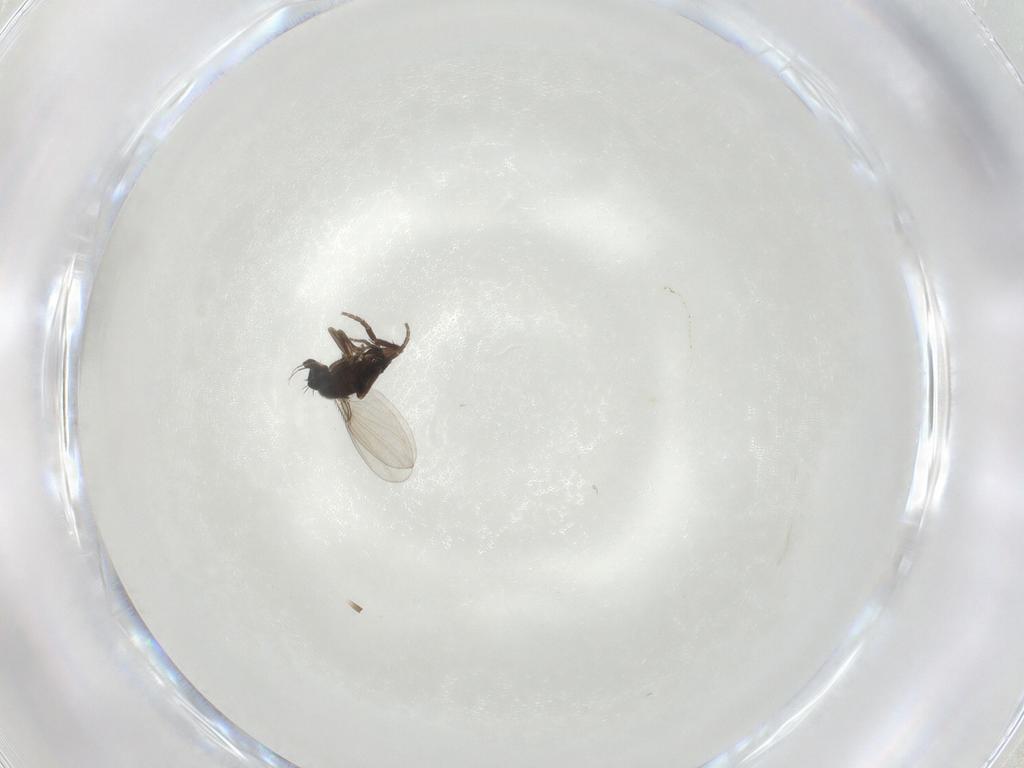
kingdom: Animalia
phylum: Arthropoda
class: Insecta
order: Diptera
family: Phoridae
